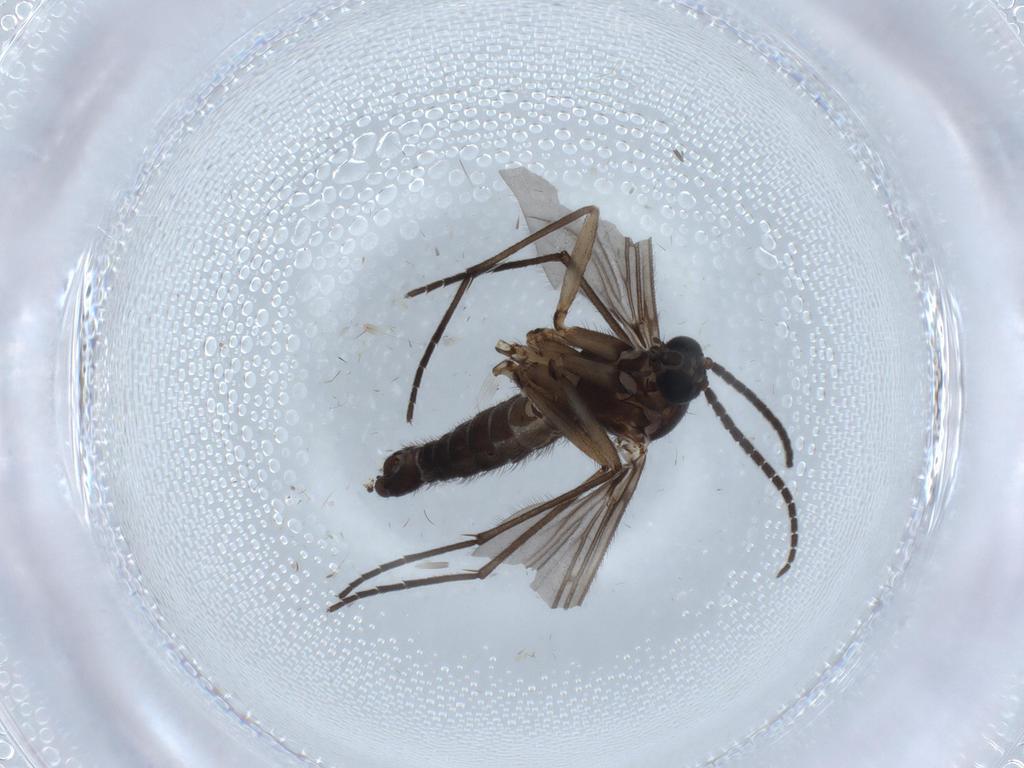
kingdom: Animalia
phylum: Arthropoda
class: Insecta
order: Diptera
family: Sciaridae
